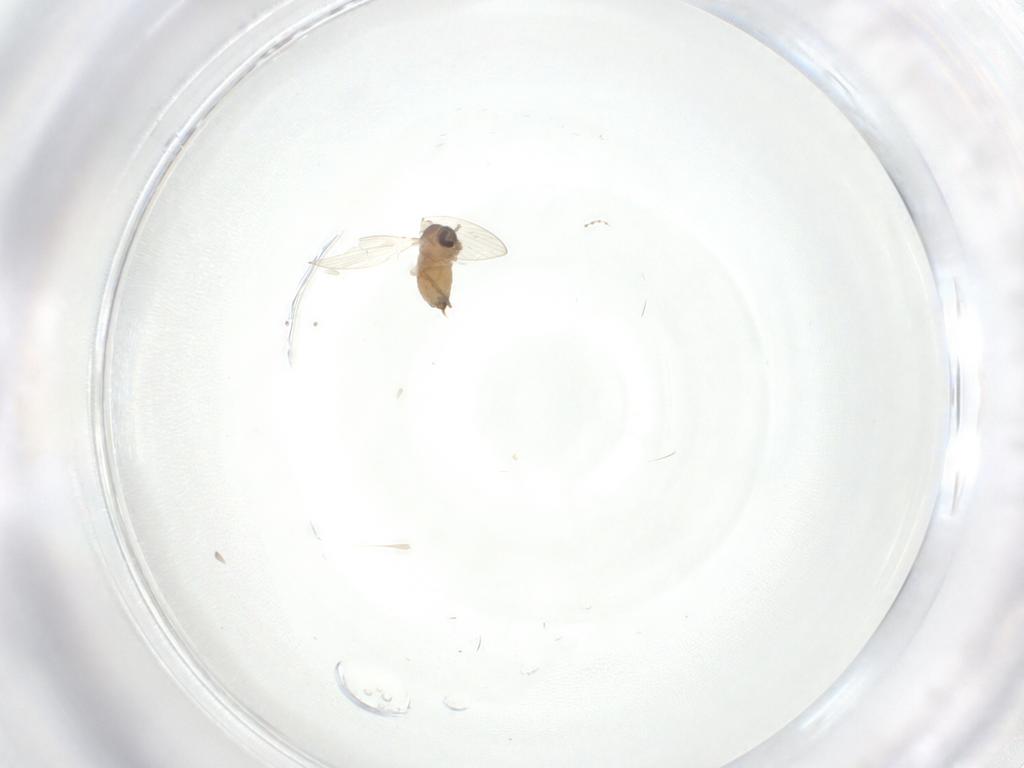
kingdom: Animalia
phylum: Arthropoda
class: Insecta
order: Diptera
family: Psychodidae
